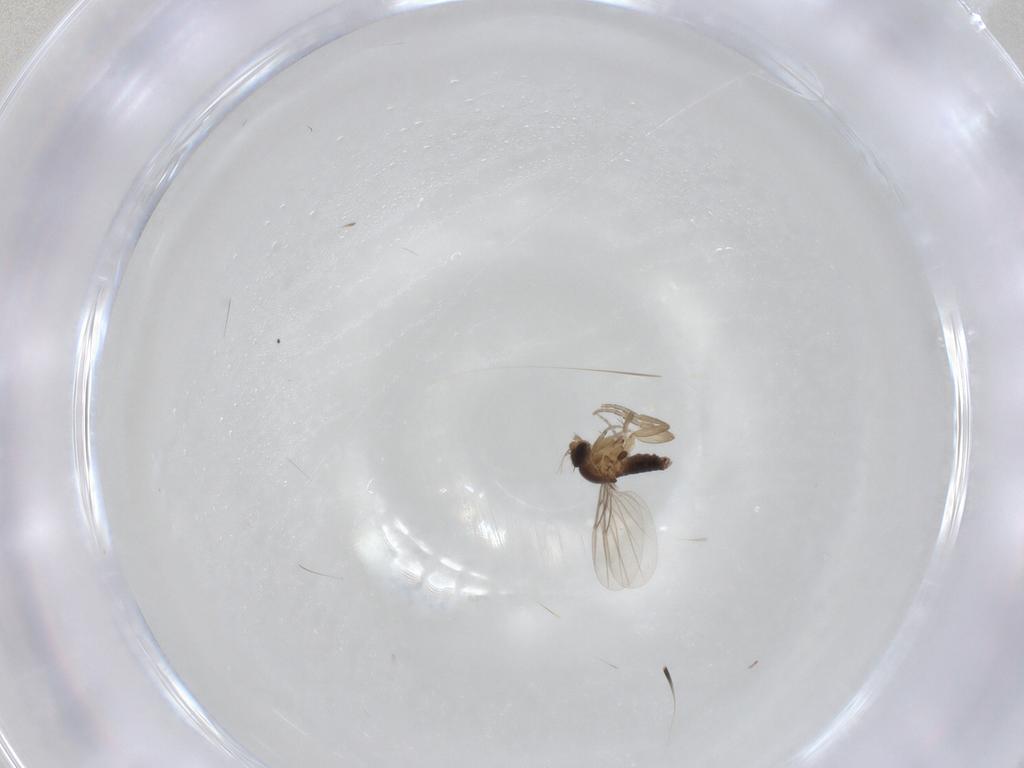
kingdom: Animalia
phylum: Arthropoda
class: Insecta
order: Diptera
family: Phoridae
